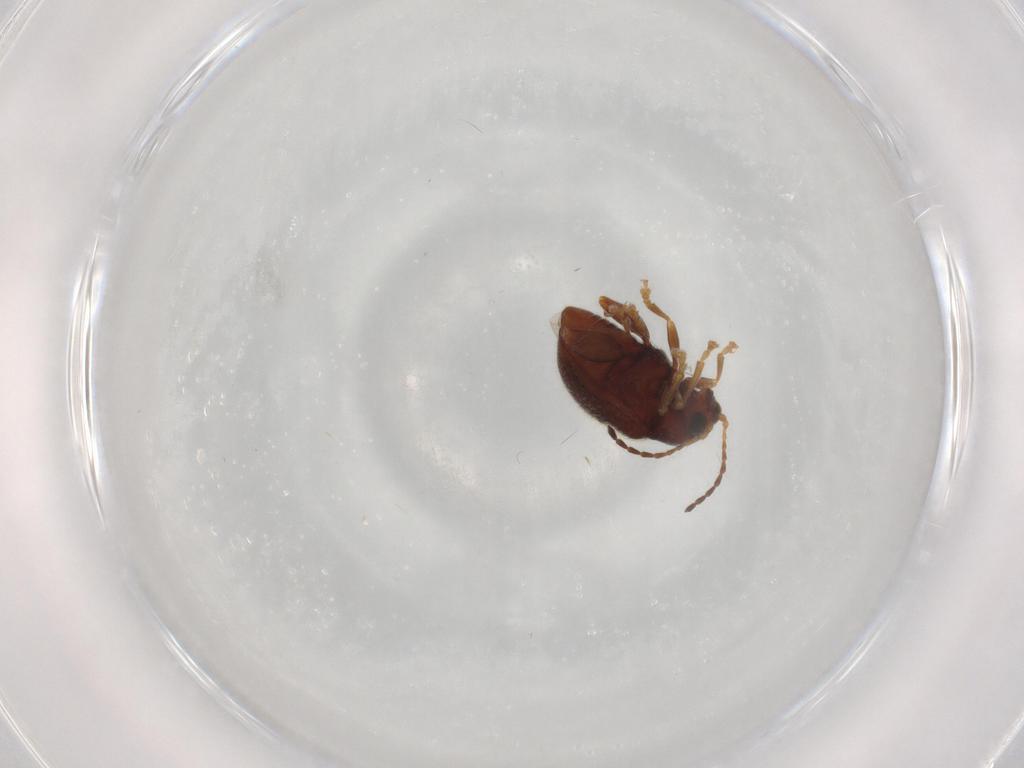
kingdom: Animalia
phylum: Arthropoda
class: Insecta
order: Coleoptera
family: Chrysomelidae
